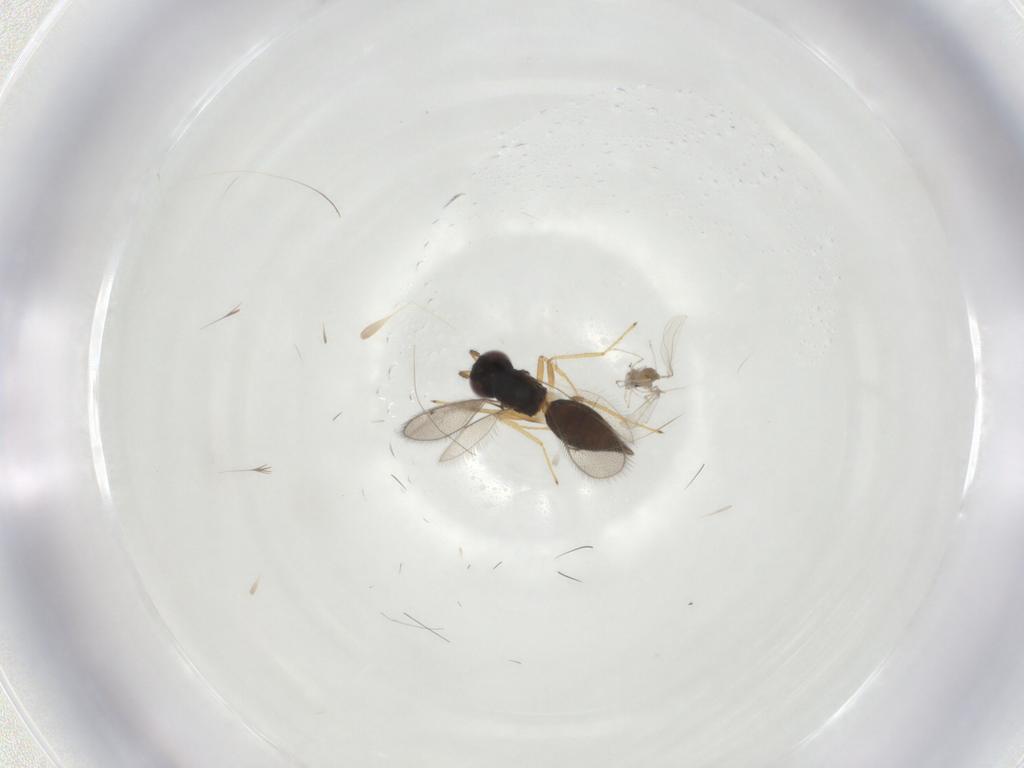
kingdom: Animalia
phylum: Arthropoda
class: Insecta
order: Diptera
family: Cecidomyiidae
